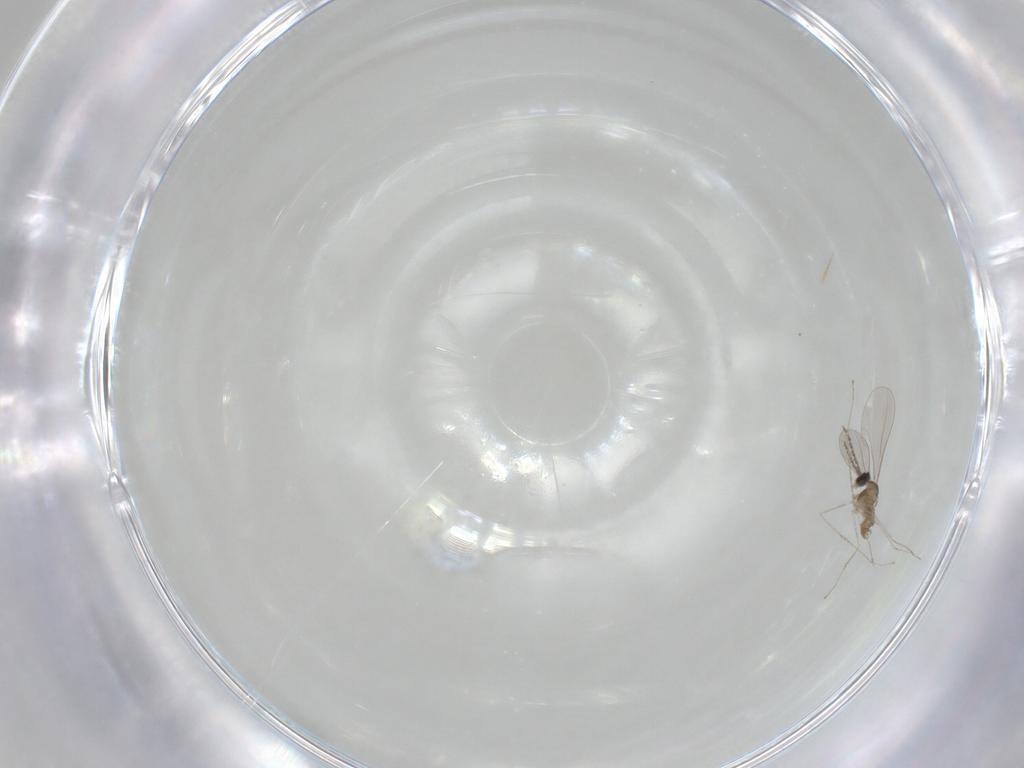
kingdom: Animalia
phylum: Arthropoda
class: Insecta
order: Diptera
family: Cecidomyiidae
